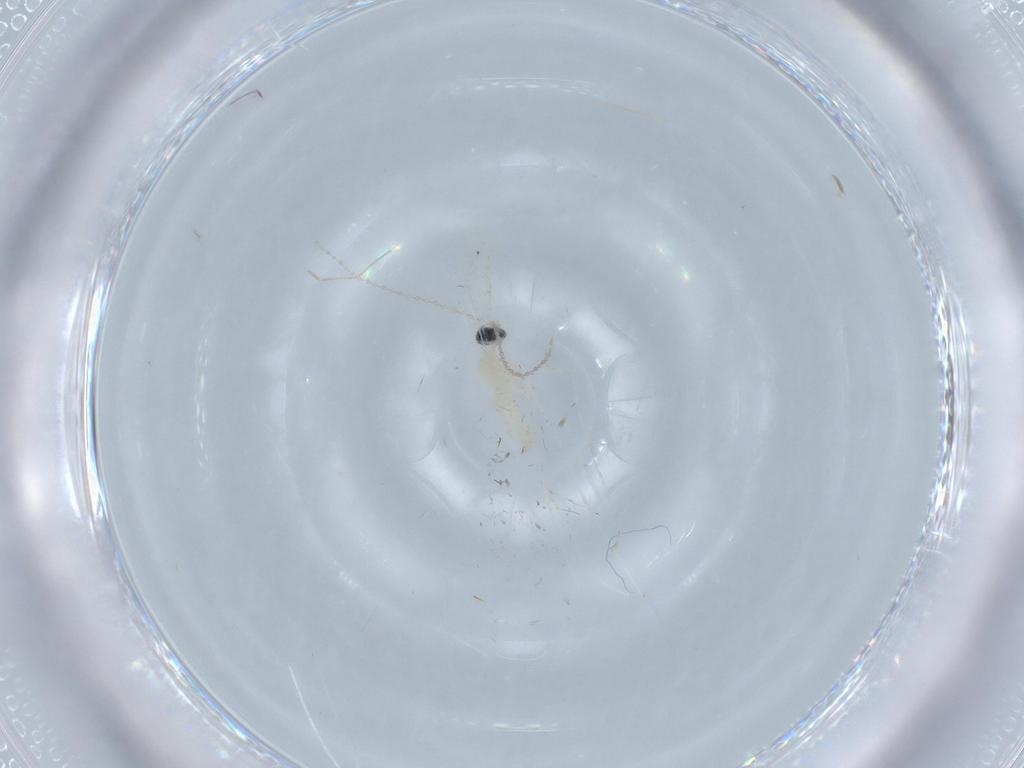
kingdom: Animalia
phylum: Arthropoda
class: Insecta
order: Diptera
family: Cecidomyiidae
